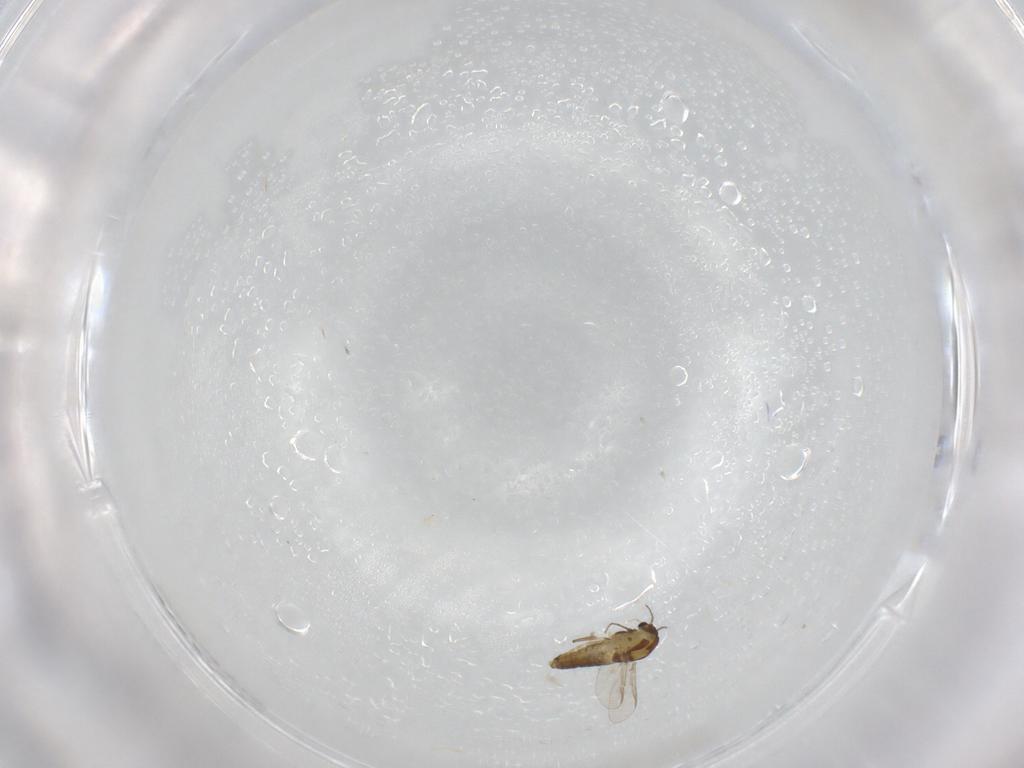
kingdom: Animalia
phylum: Arthropoda
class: Insecta
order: Diptera
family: Chironomidae
